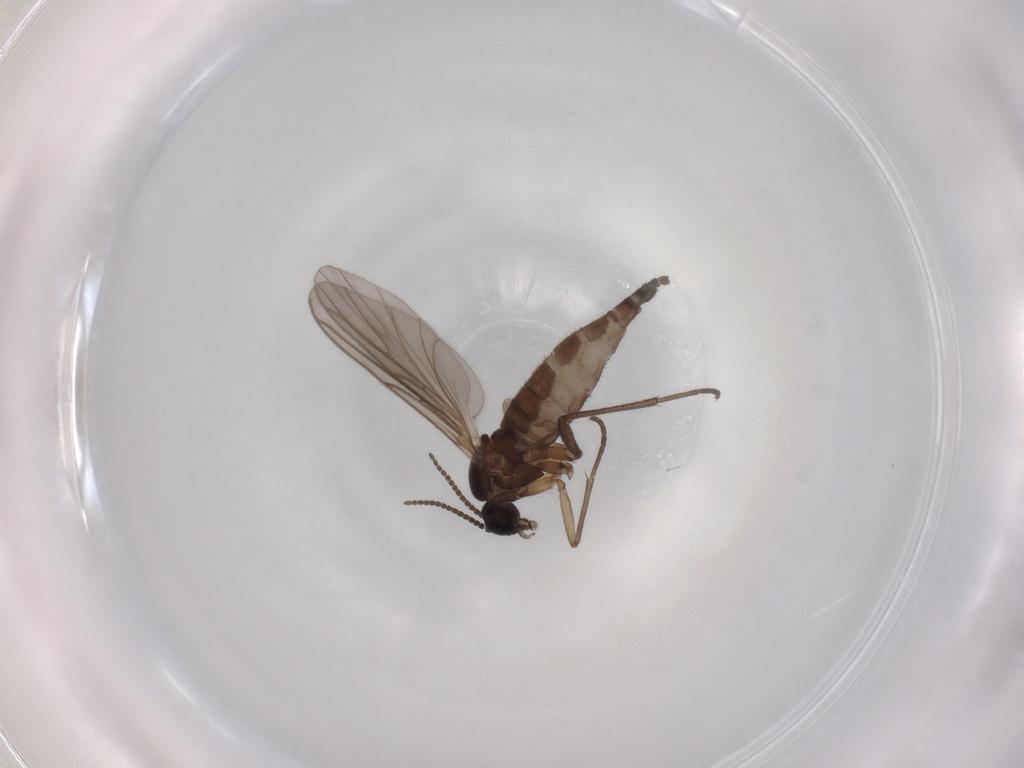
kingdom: Animalia
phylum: Arthropoda
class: Insecta
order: Diptera
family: Sciaridae
